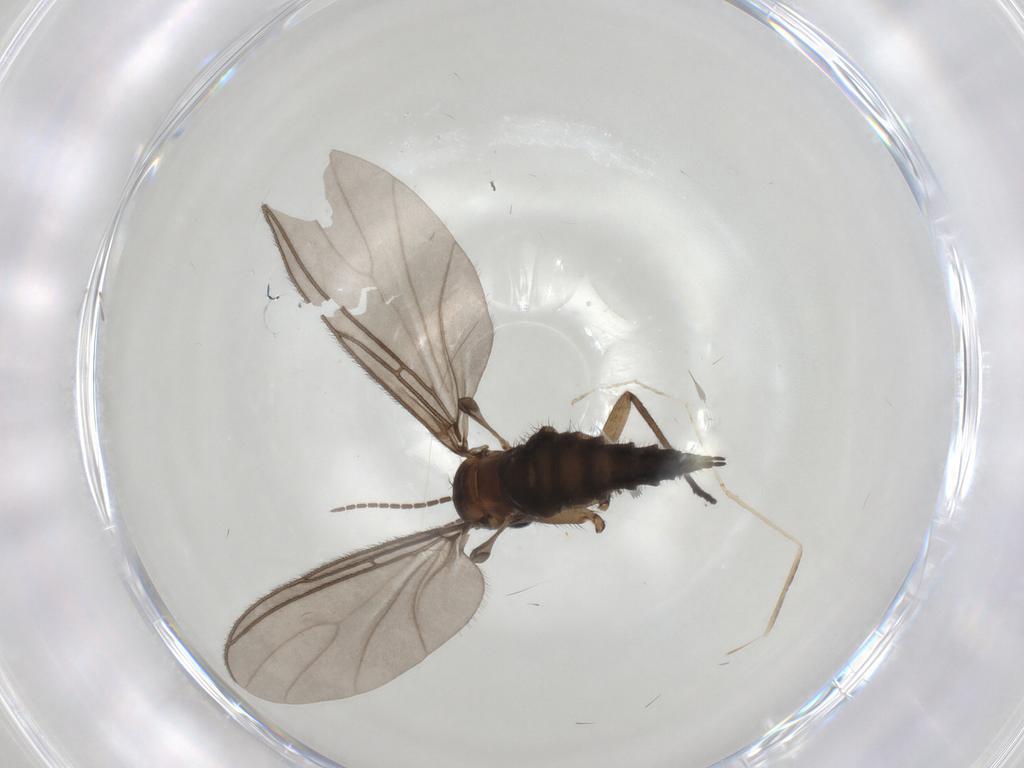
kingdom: Animalia
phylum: Arthropoda
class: Insecta
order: Diptera
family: Sciaridae
